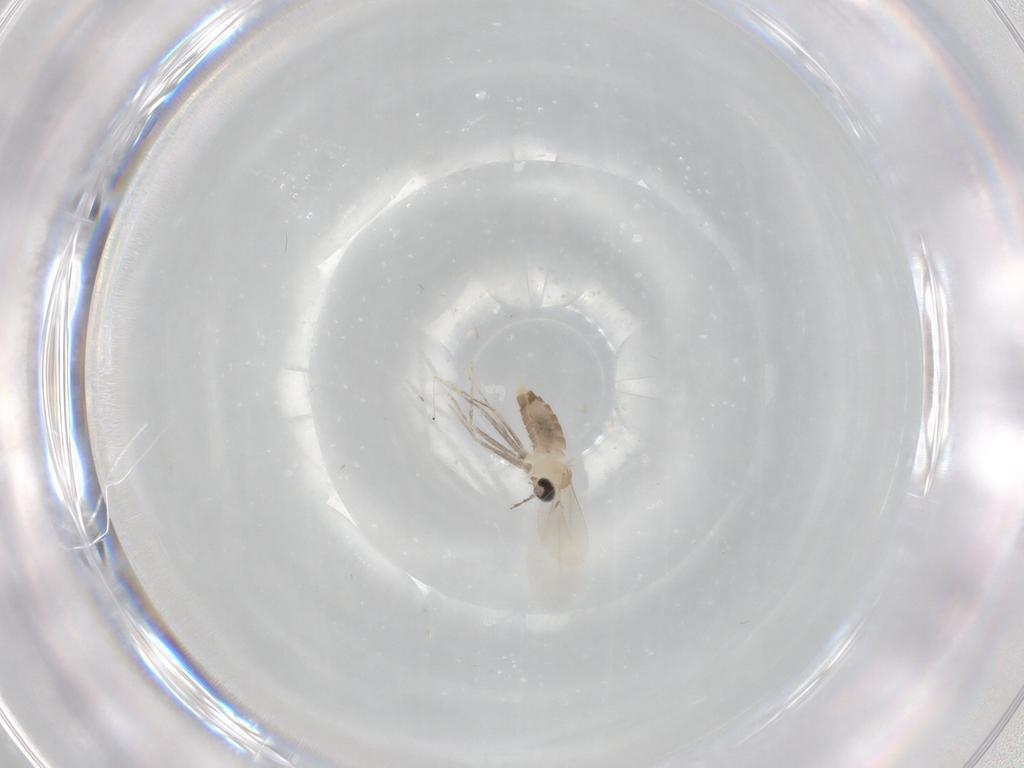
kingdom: Animalia
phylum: Arthropoda
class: Insecta
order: Diptera
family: Cecidomyiidae
